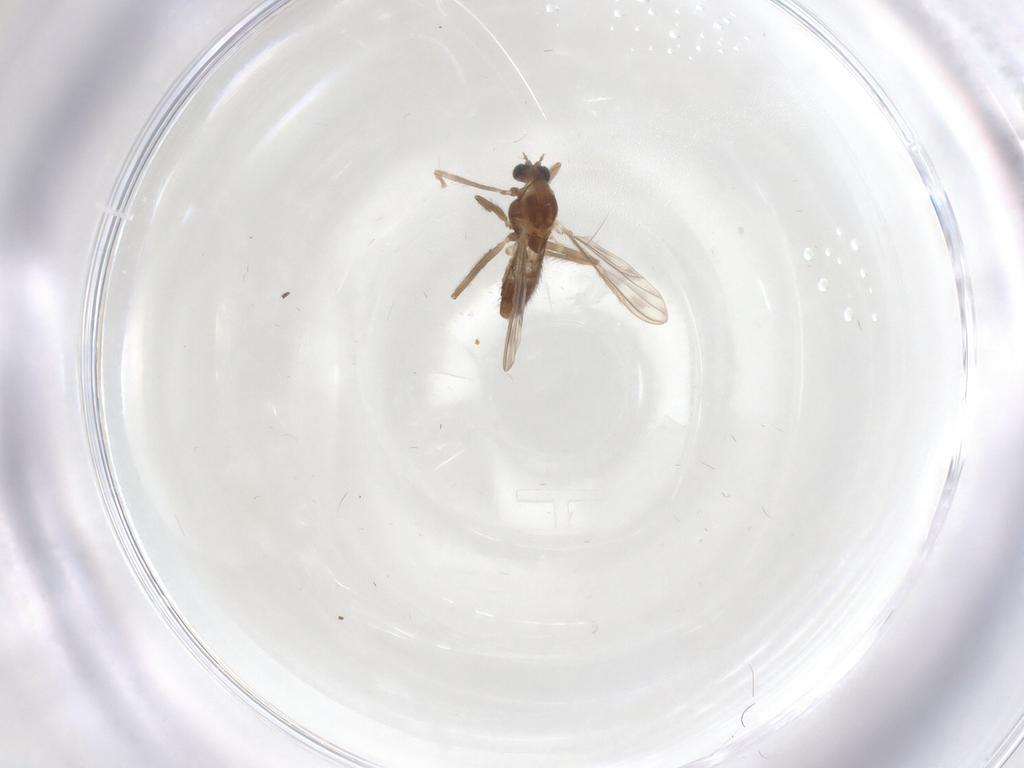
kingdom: Animalia
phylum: Arthropoda
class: Insecta
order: Diptera
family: Chironomidae
